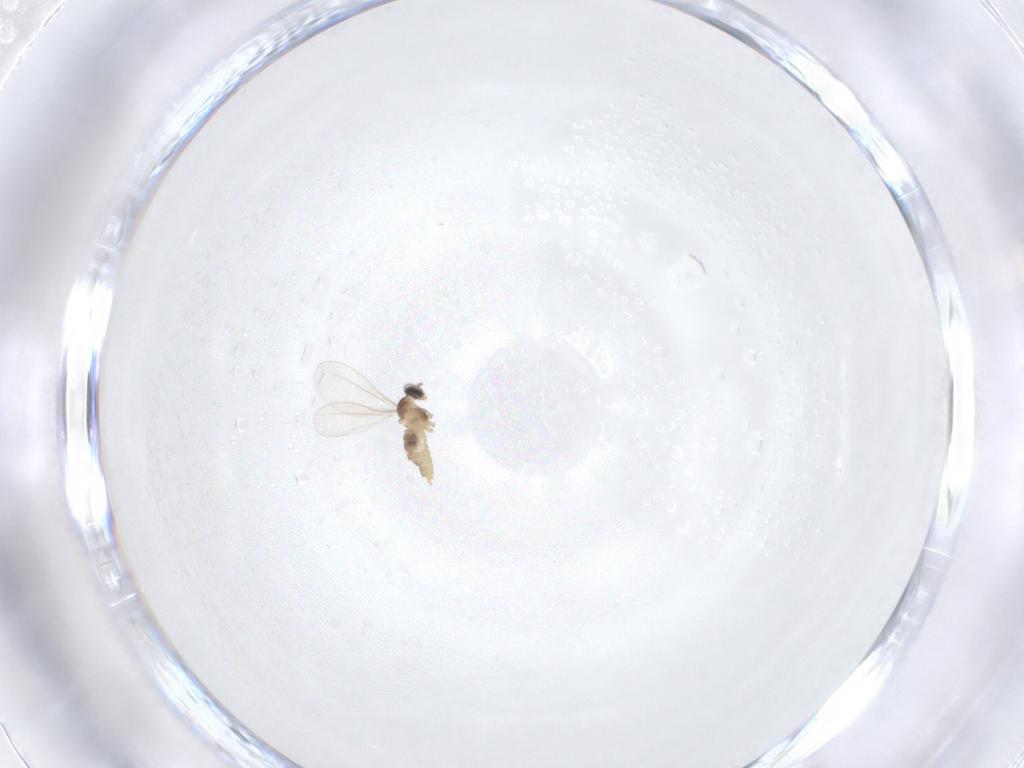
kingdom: Animalia
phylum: Arthropoda
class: Insecta
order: Diptera
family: Cecidomyiidae
